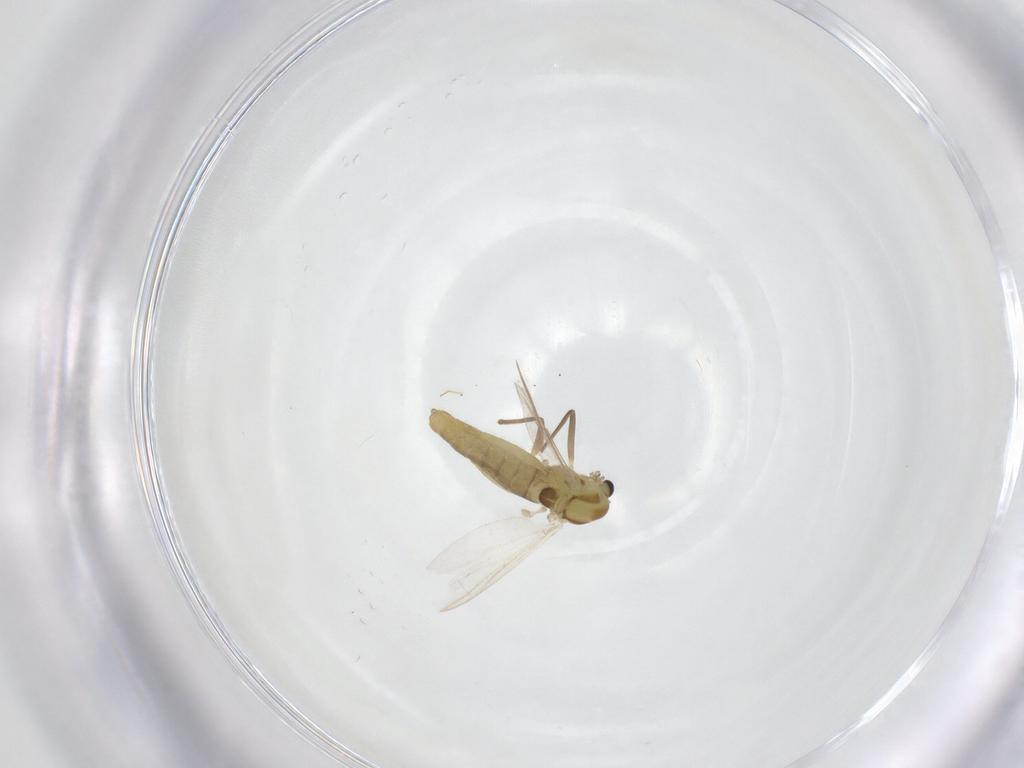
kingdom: Animalia
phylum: Arthropoda
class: Insecta
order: Diptera
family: Chironomidae
